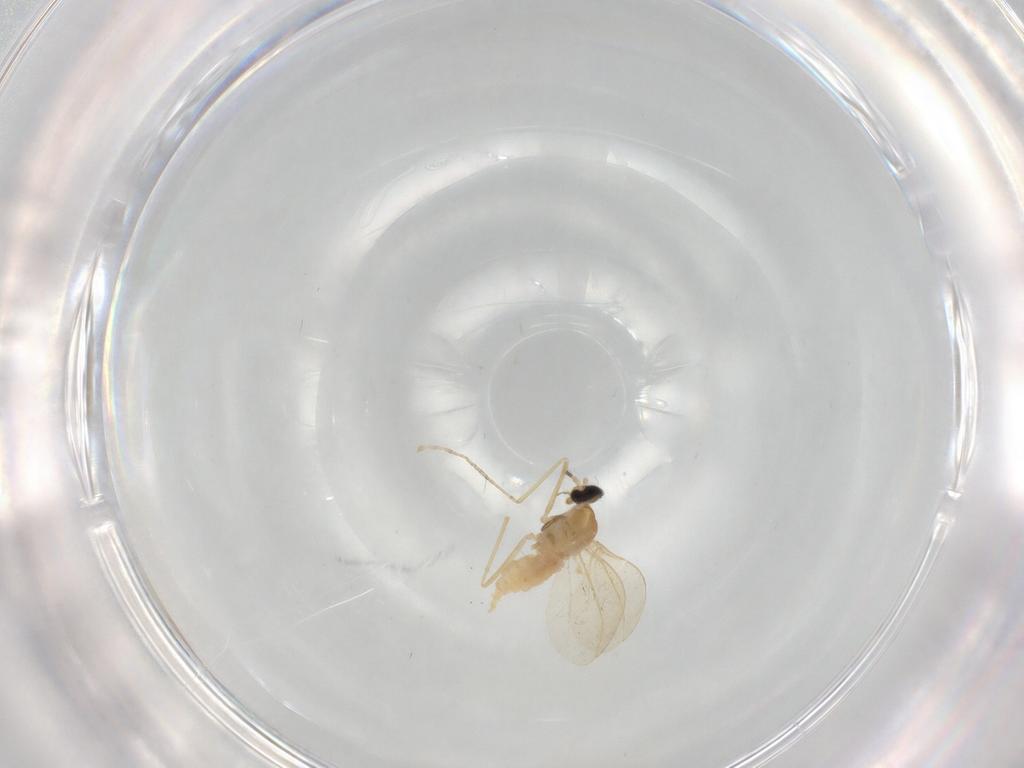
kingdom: Animalia
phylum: Arthropoda
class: Insecta
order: Diptera
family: Cecidomyiidae
